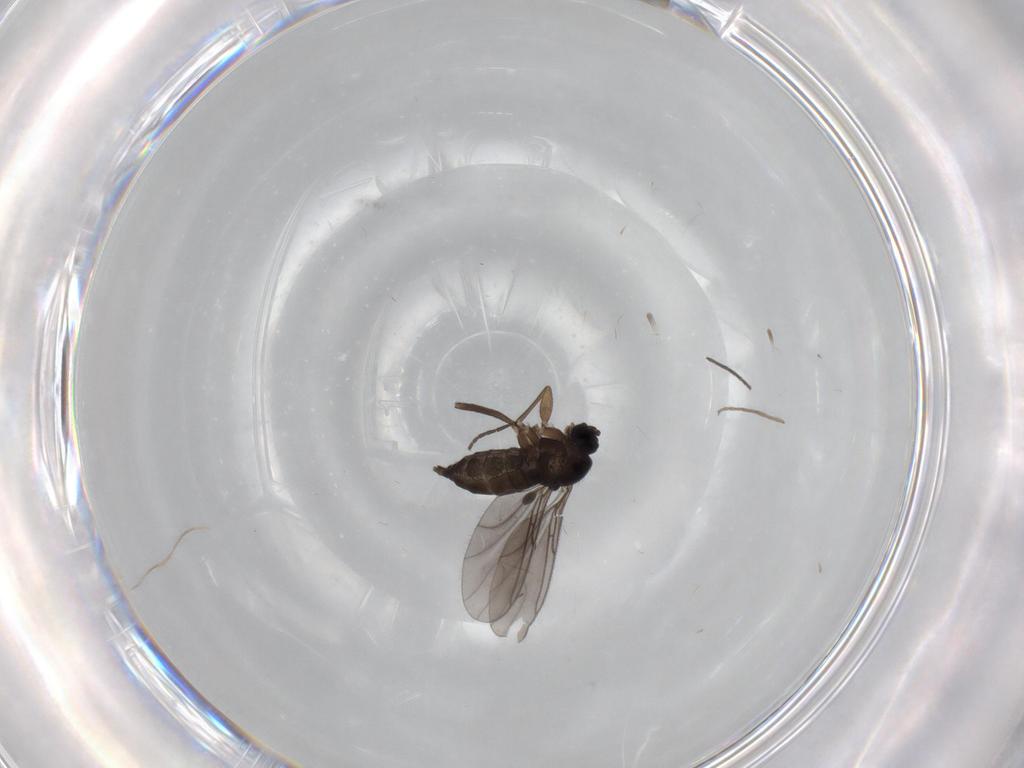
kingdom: Animalia
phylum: Arthropoda
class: Insecta
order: Diptera
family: Sciaridae
